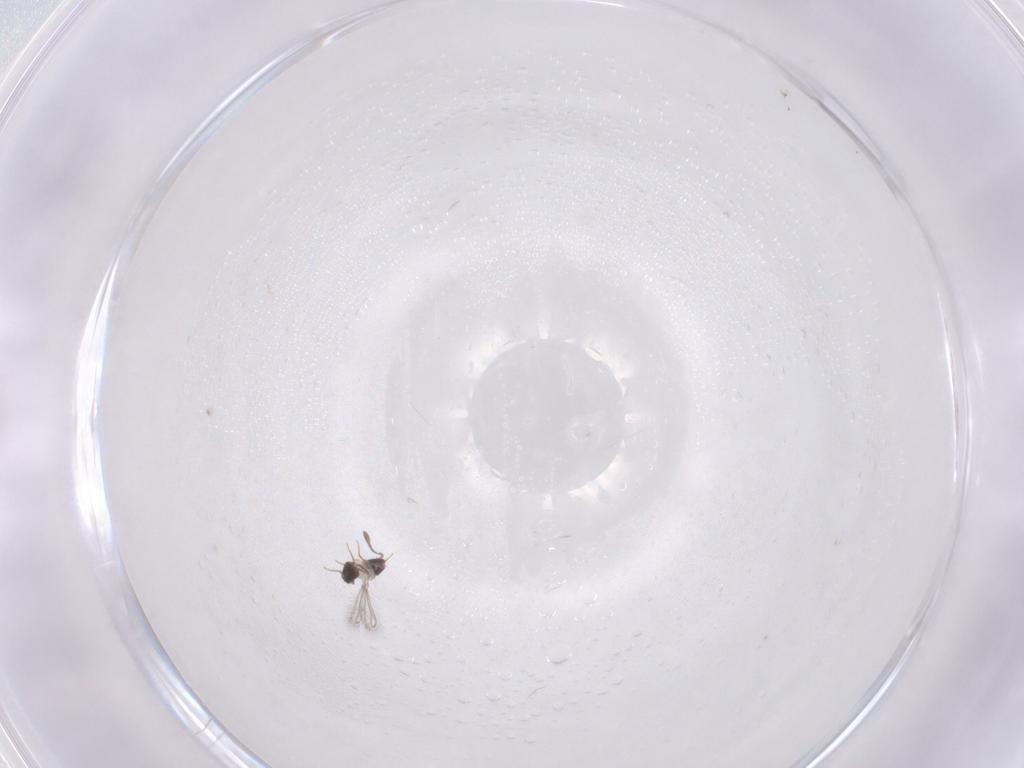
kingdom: Animalia
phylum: Arthropoda
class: Insecta
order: Hymenoptera
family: Mymaridae
